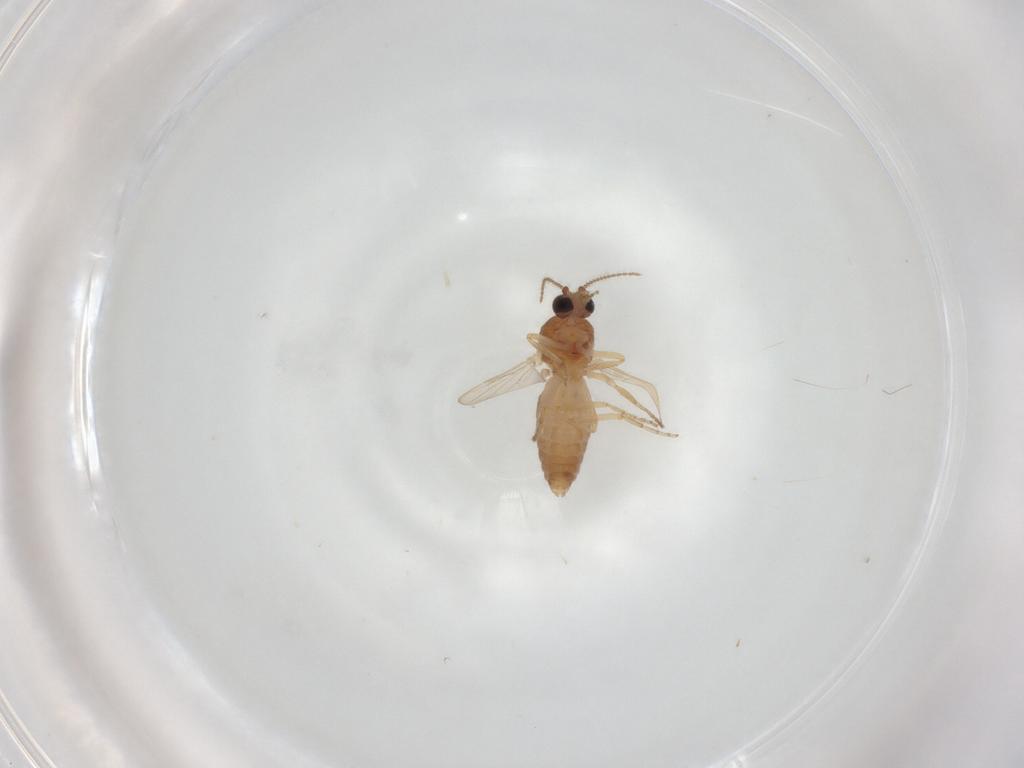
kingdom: Animalia
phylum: Arthropoda
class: Insecta
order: Diptera
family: Tachinidae
